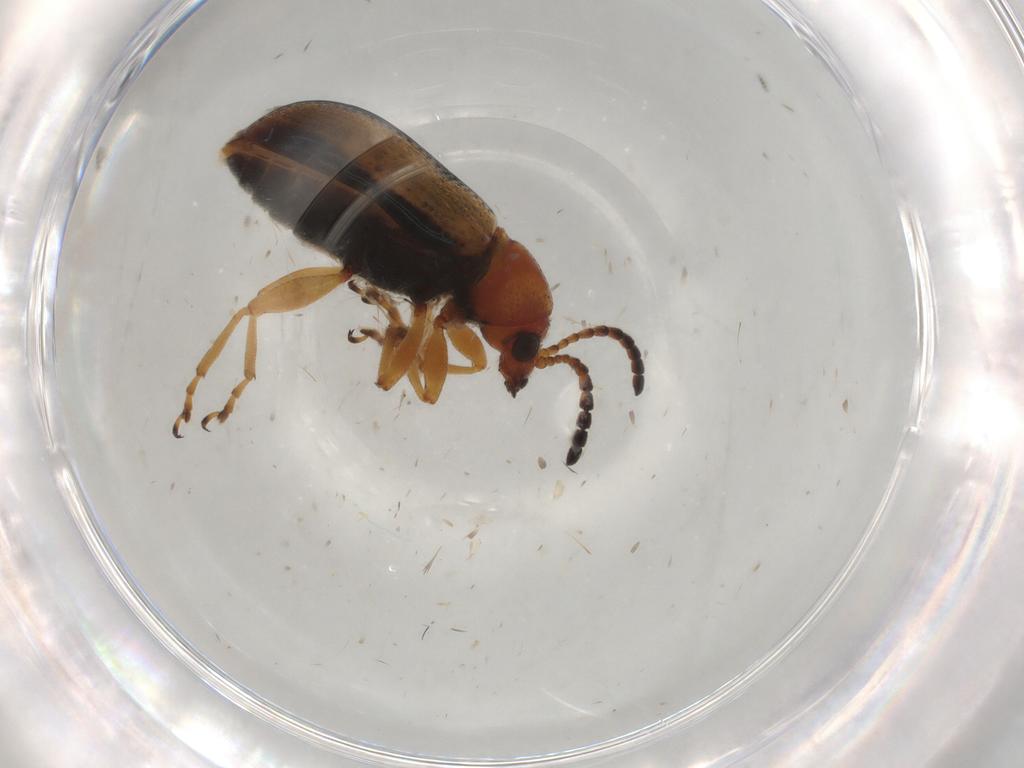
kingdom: Animalia
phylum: Arthropoda
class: Insecta
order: Coleoptera
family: Chrysomelidae
